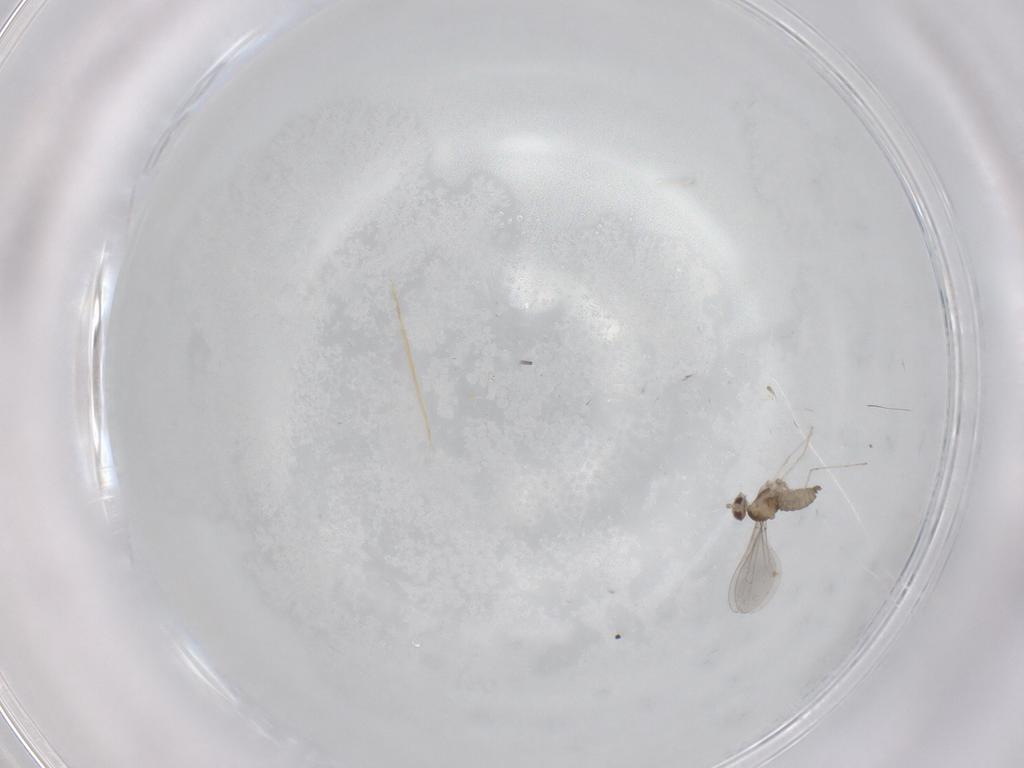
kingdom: Animalia
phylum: Arthropoda
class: Insecta
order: Diptera
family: Cecidomyiidae
